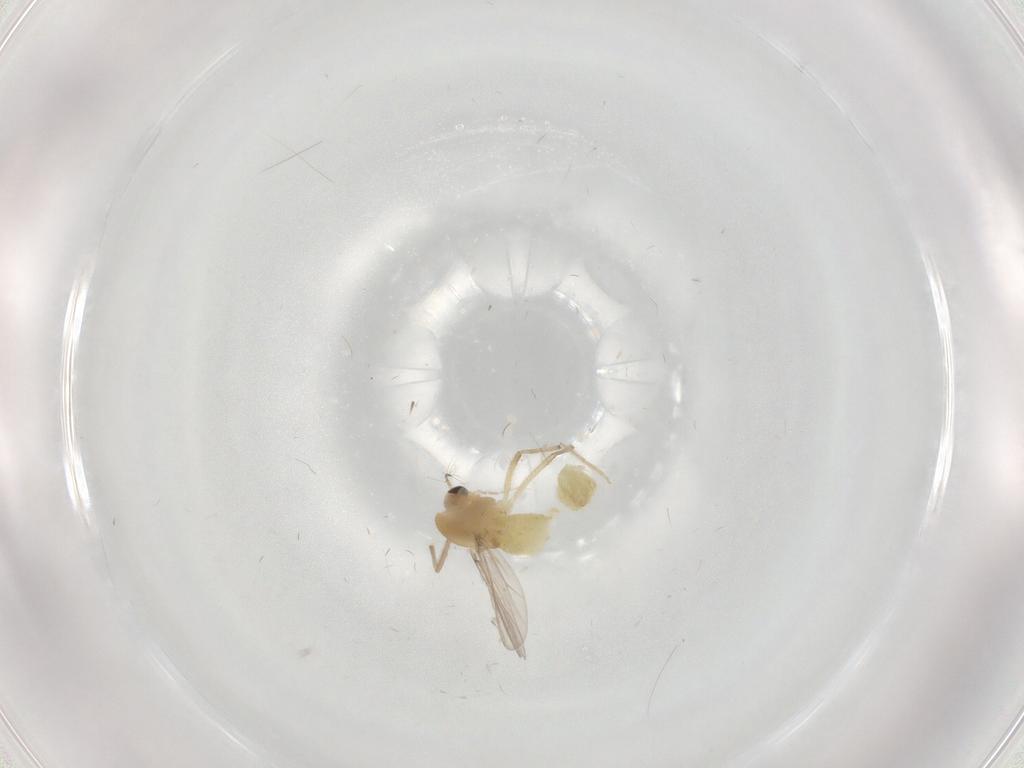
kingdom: Animalia
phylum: Arthropoda
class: Insecta
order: Diptera
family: Chironomidae
